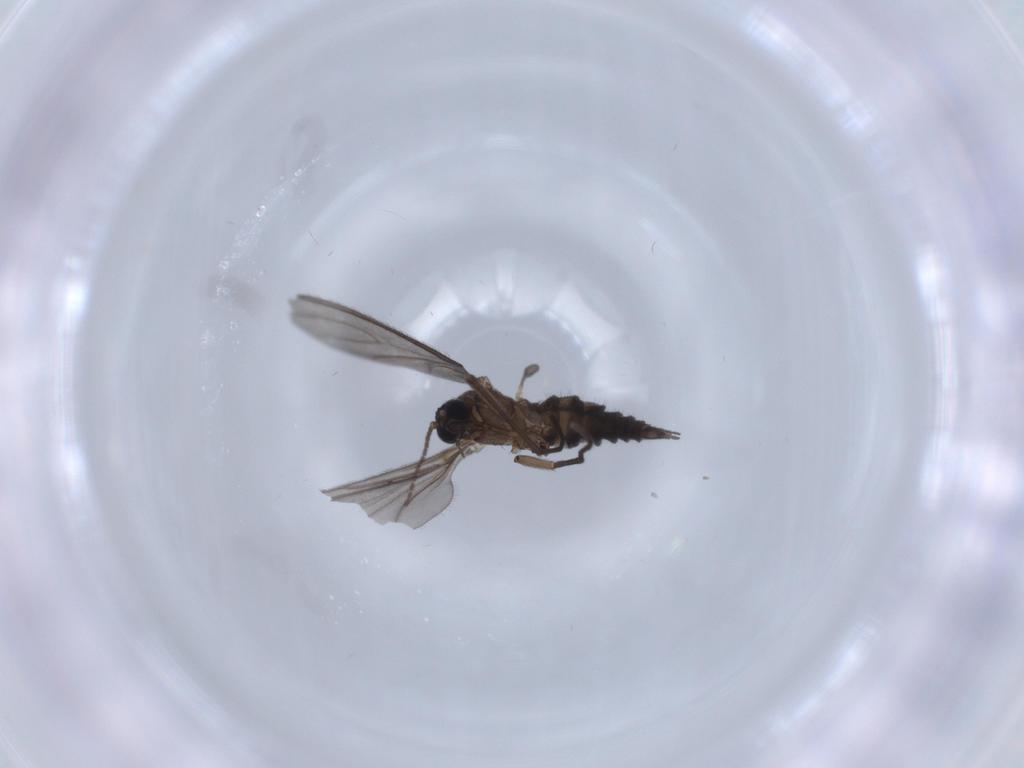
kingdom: Animalia
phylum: Arthropoda
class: Insecta
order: Diptera
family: Sciaridae
